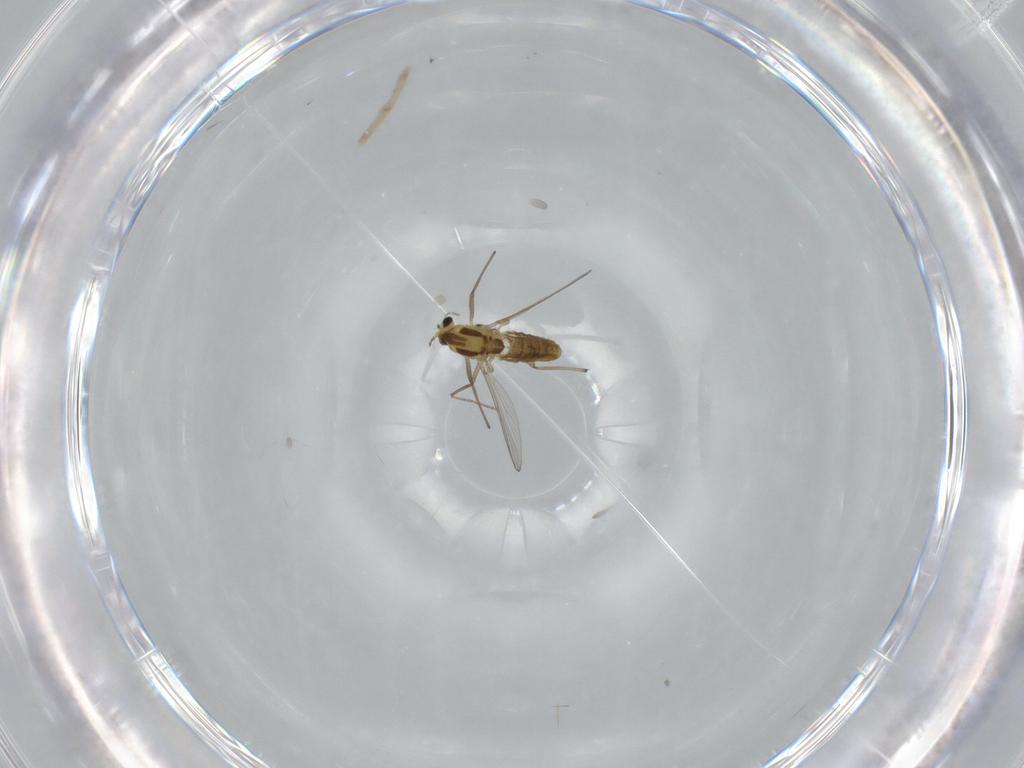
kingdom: Animalia
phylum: Arthropoda
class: Insecta
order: Diptera
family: Chironomidae
